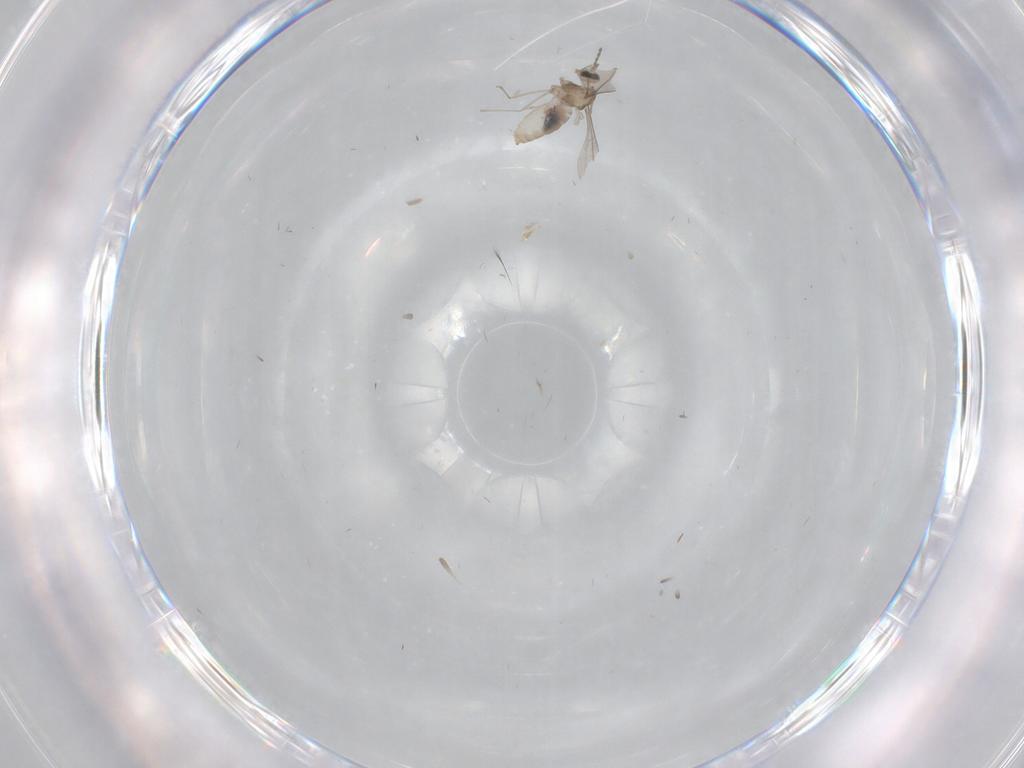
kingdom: Animalia
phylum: Arthropoda
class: Insecta
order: Diptera
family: Cecidomyiidae
